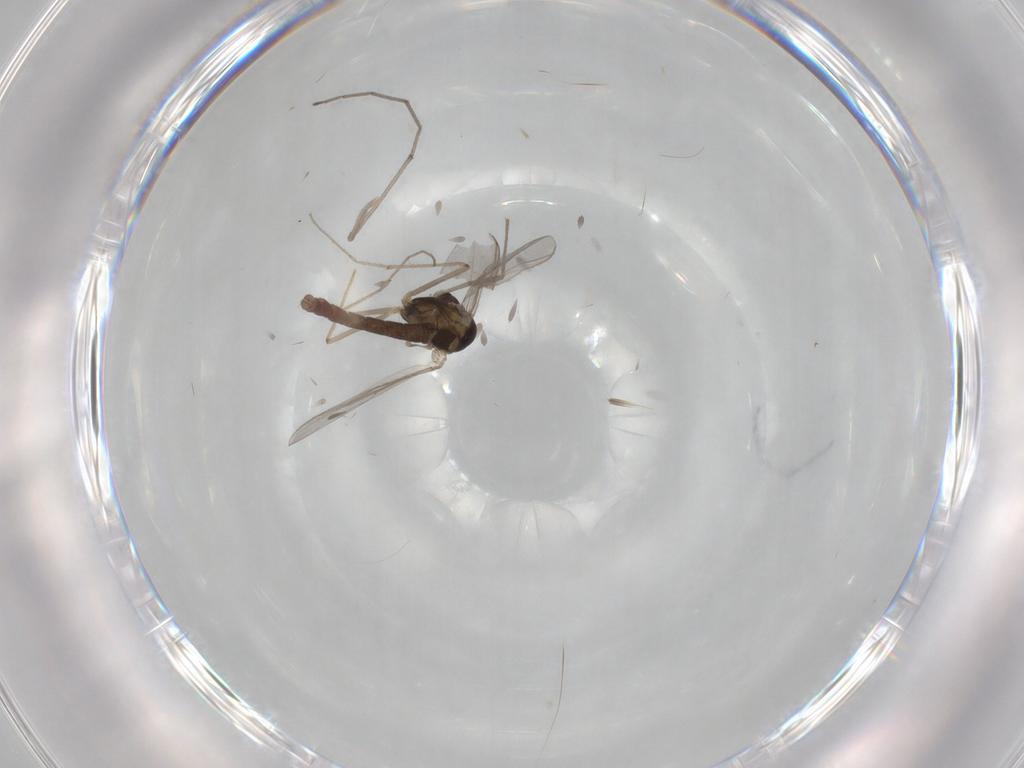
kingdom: Animalia
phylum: Arthropoda
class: Insecta
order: Diptera
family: Chironomidae
